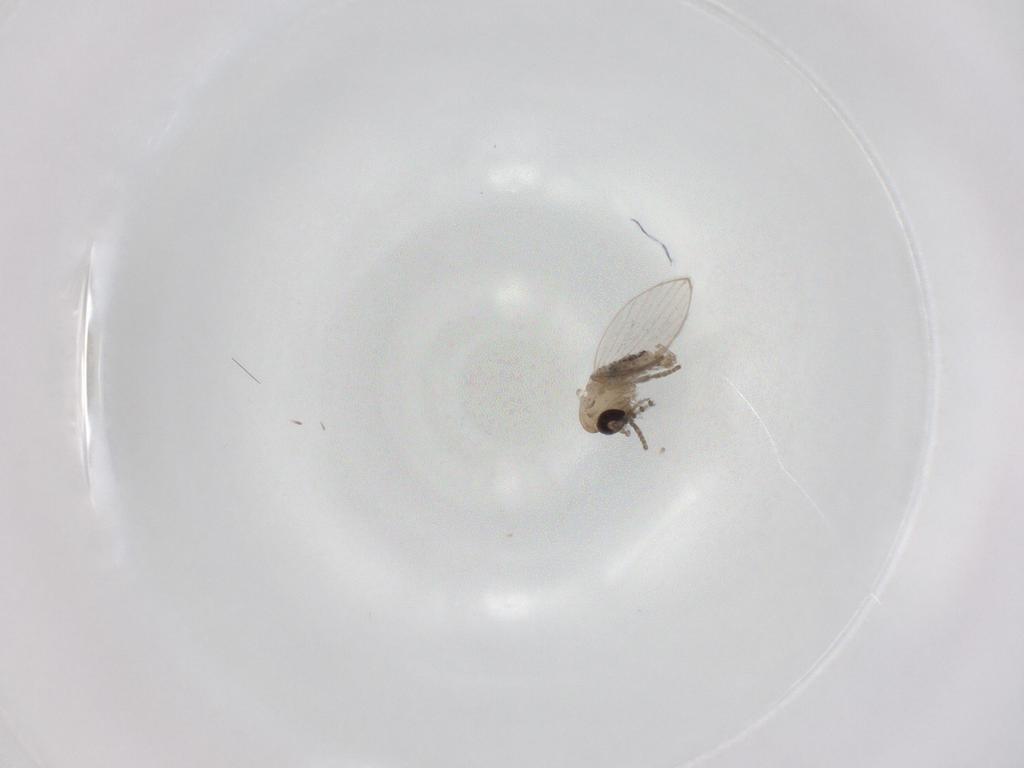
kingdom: Animalia
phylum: Arthropoda
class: Insecta
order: Diptera
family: Psychodidae
